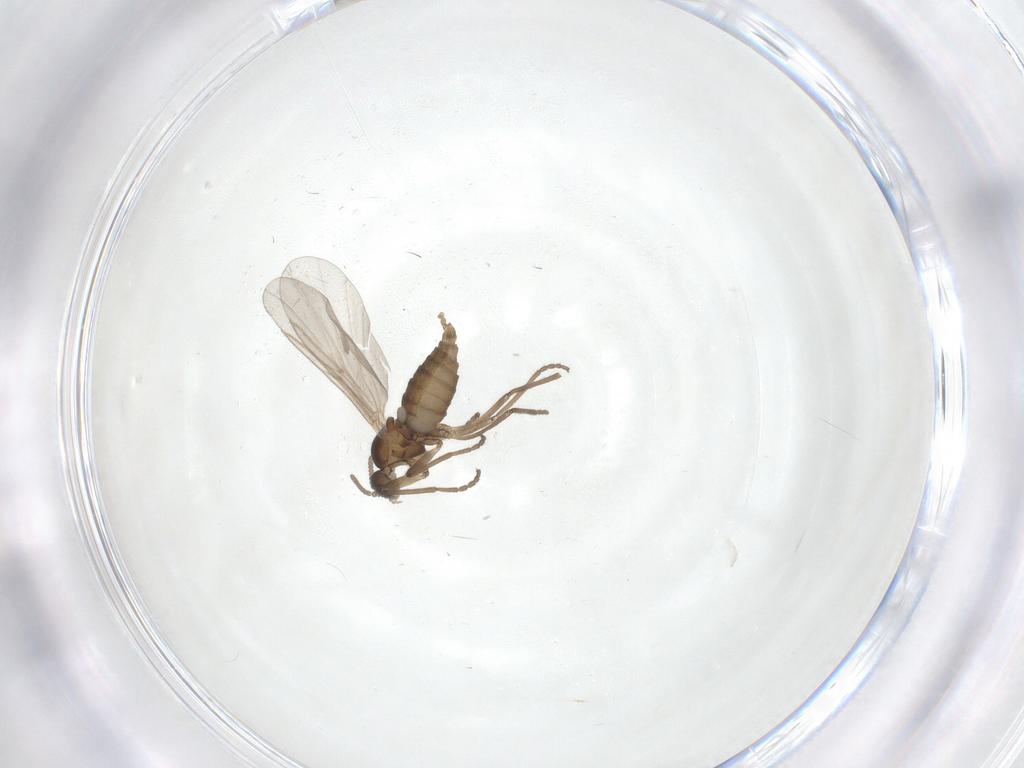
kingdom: Animalia
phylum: Arthropoda
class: Insecta
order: Diptera
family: Cecidomyiidae
